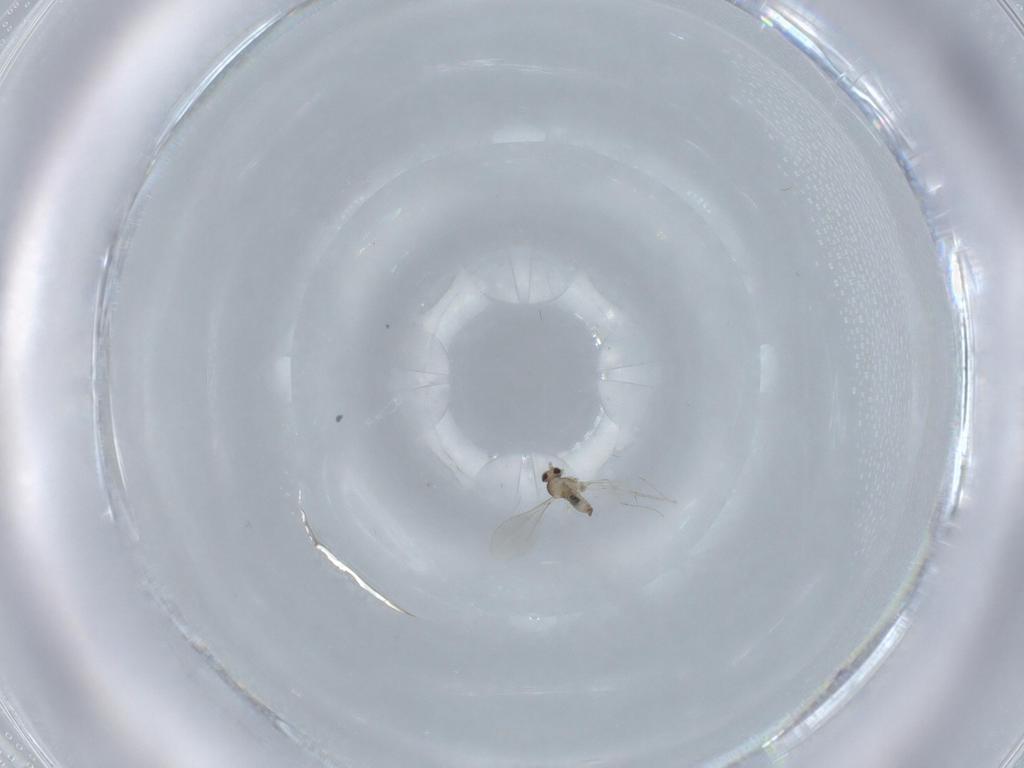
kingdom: Animalia
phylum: Arthropoda
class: Insecta
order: Diptera
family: Cecidomyiidae
